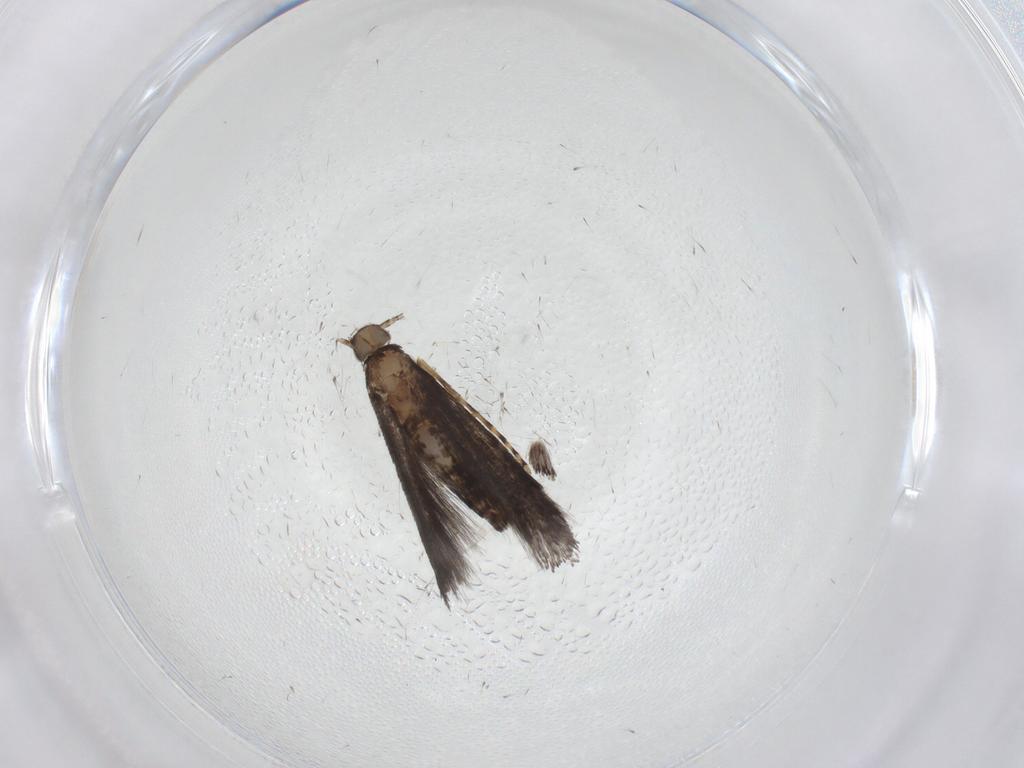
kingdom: Animalia
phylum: Arthropoda
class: Insecta
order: Lepidoptera
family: Gracillariidae
